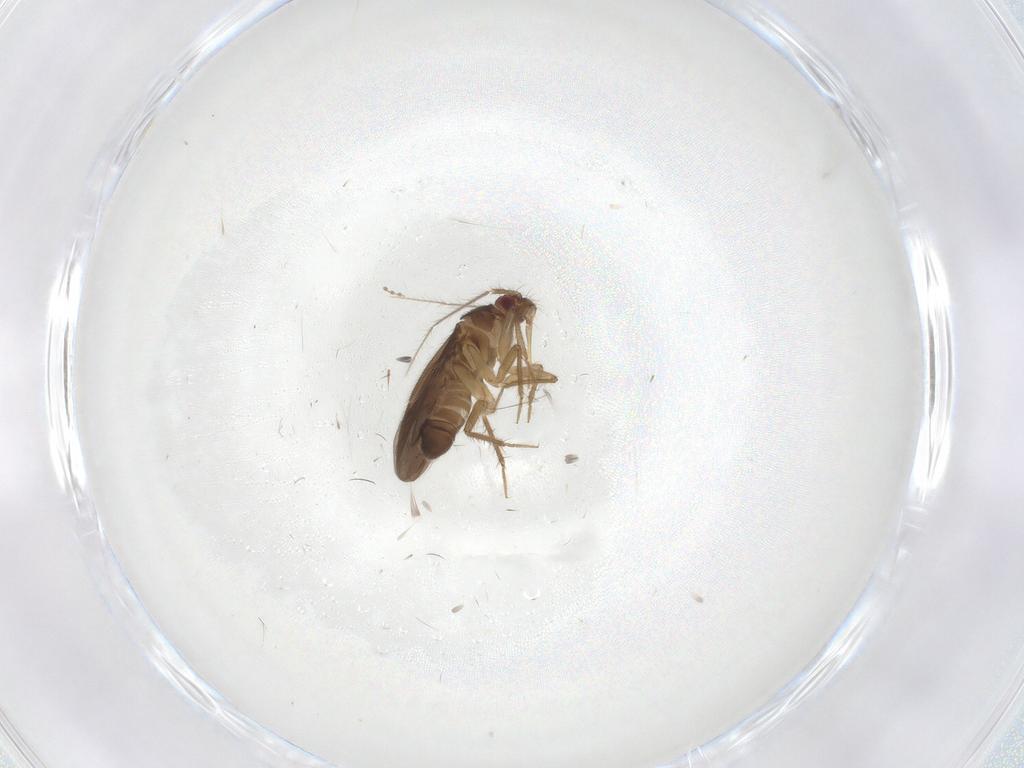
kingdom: Animalia
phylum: Arthropoda
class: Insecta
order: Hemiptera
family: Ceratocombidae
